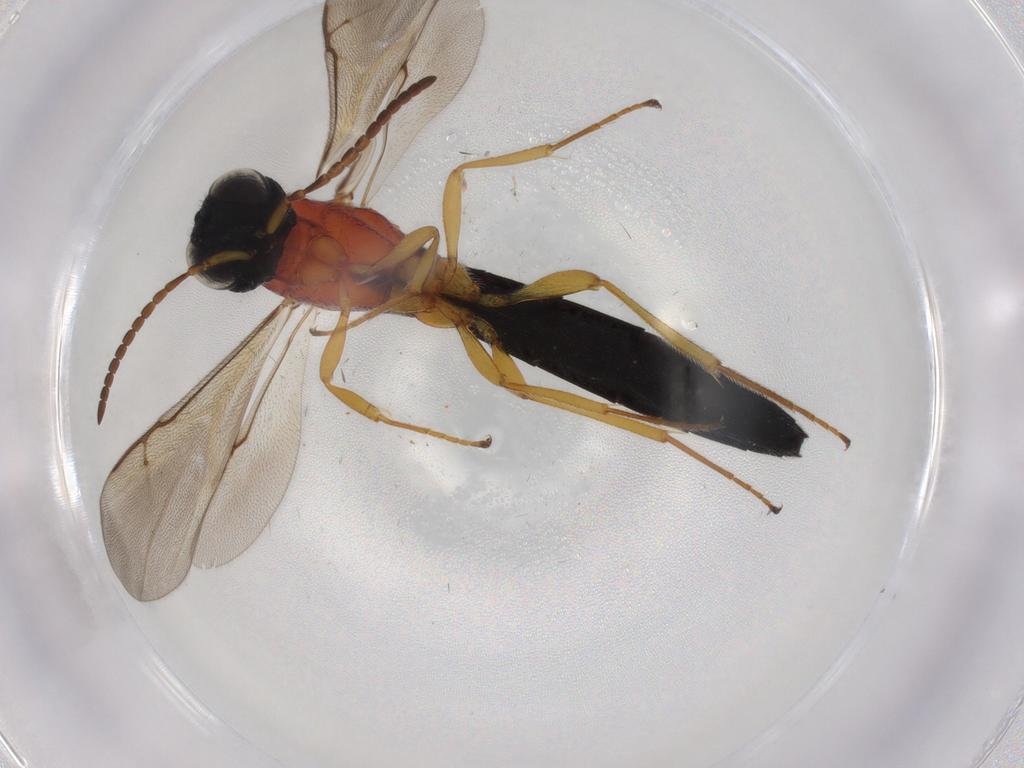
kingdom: Animalia
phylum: Arthropoda
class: Insecta
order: Hymenoptera
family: Scelionidae
